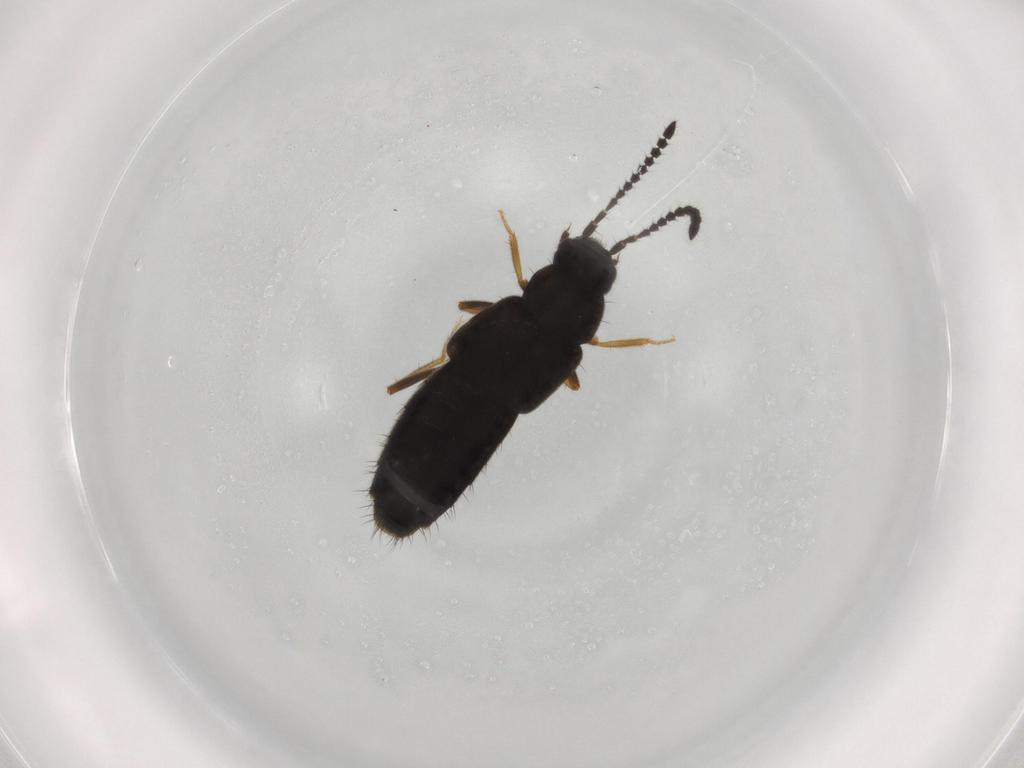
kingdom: Animalia
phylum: Arthropoda
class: Insecta
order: Coleoptera
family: Staphylinidae
